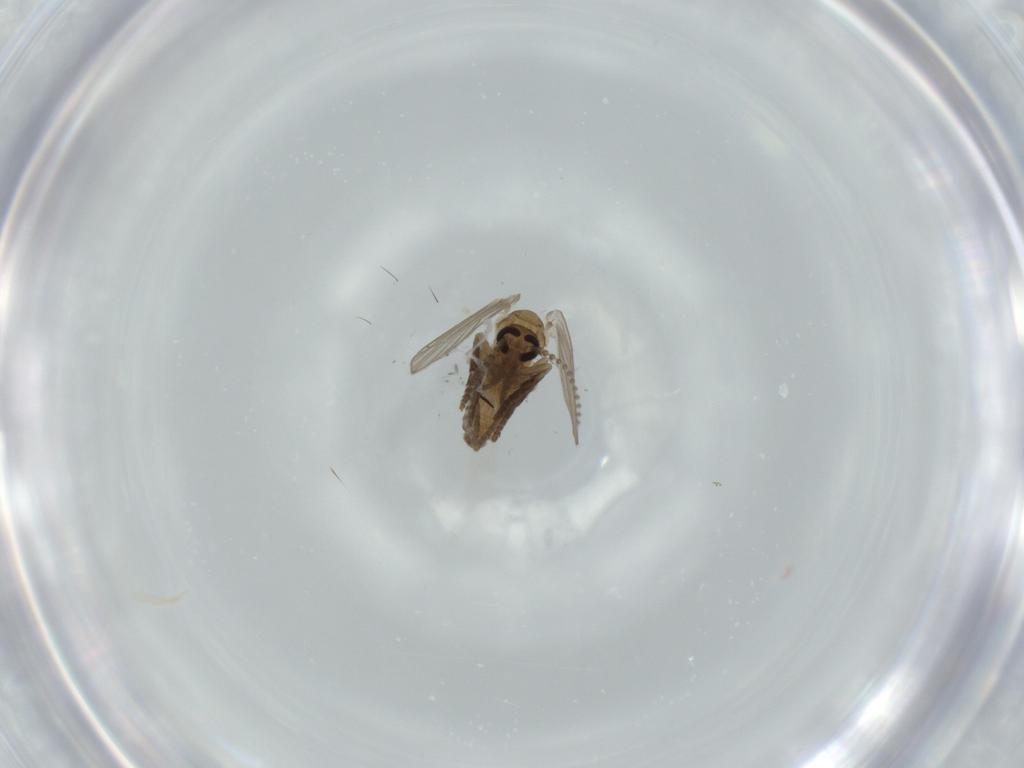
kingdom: Animalia
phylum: Arthropoda
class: Insecta
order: Diptera
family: Psychodidae
